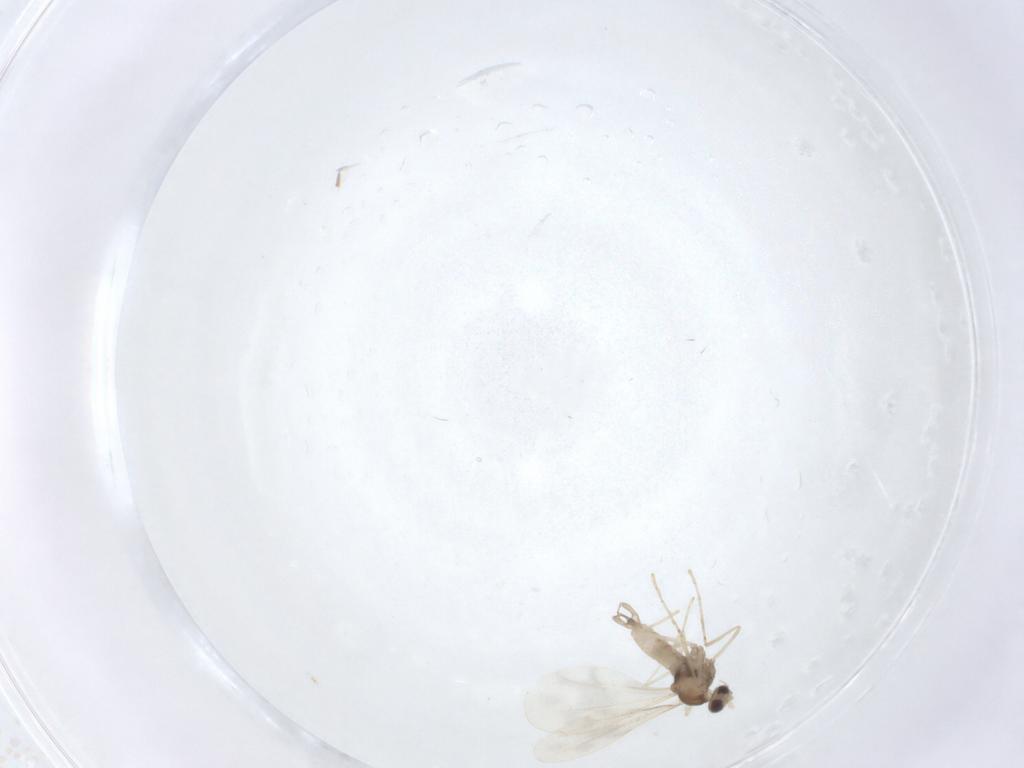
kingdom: Animalia
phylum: Arthropoda
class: Insecta
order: Diptera
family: Cecidomyiidae
